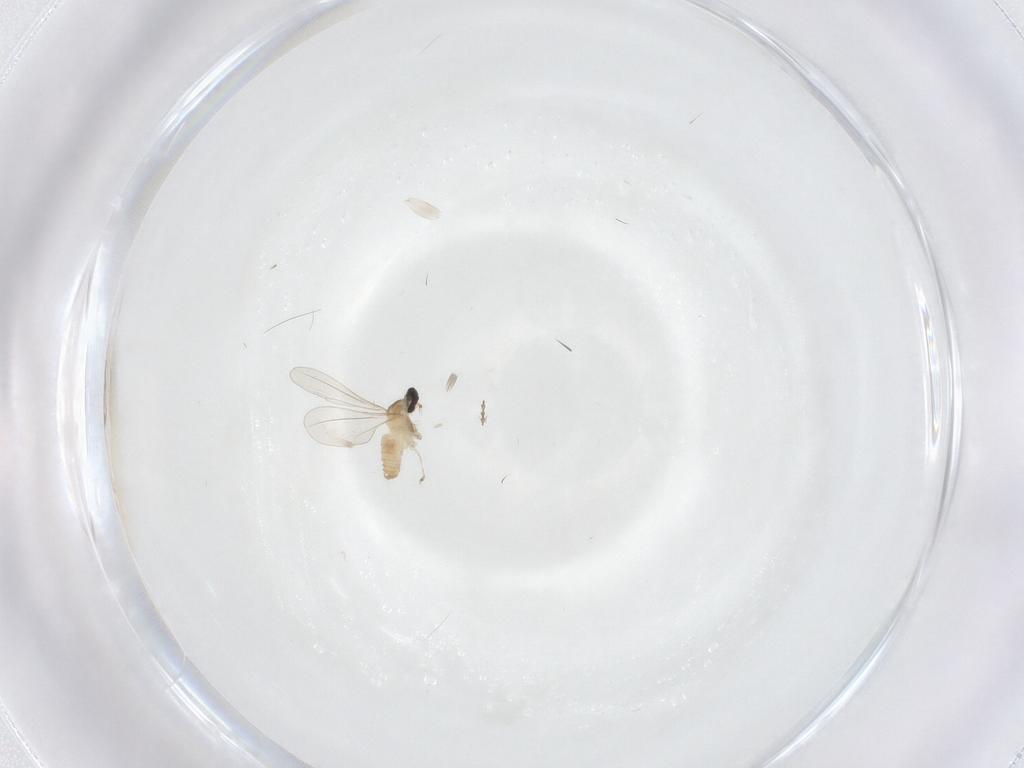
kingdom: Animalia
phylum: Arthropoda
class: Insecta
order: Diptera
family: Cecidomyiidae
